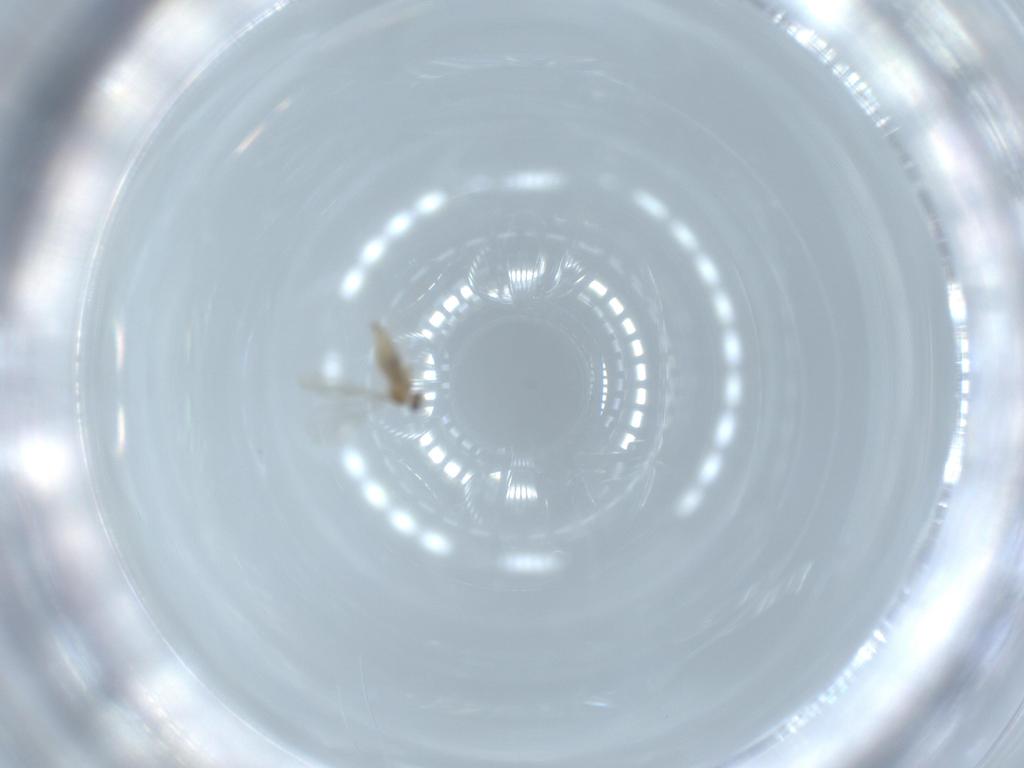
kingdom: Animalia
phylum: Arthropoda
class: Insecta
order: Diptera
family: Cecidomyiidae
